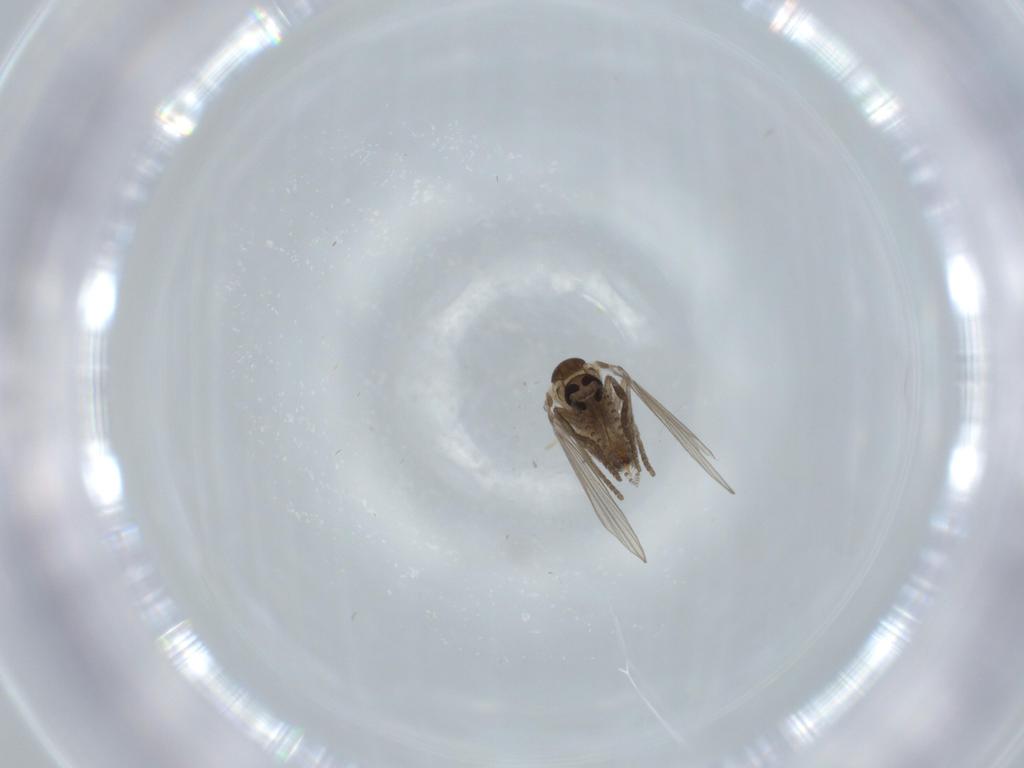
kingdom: Animalia
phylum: Arthropoda
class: Insecta
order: Diptera
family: Psychodidae
